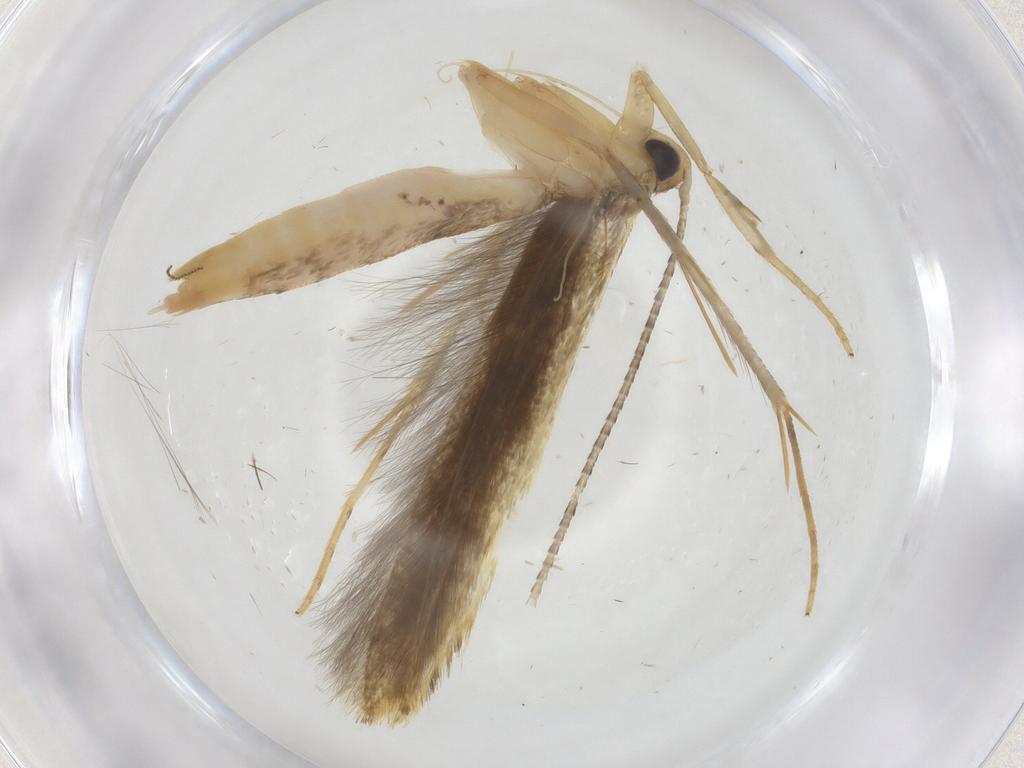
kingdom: Animalia
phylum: Arthropoda
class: Insecta
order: Lepidoptera
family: Pterolonchidae
